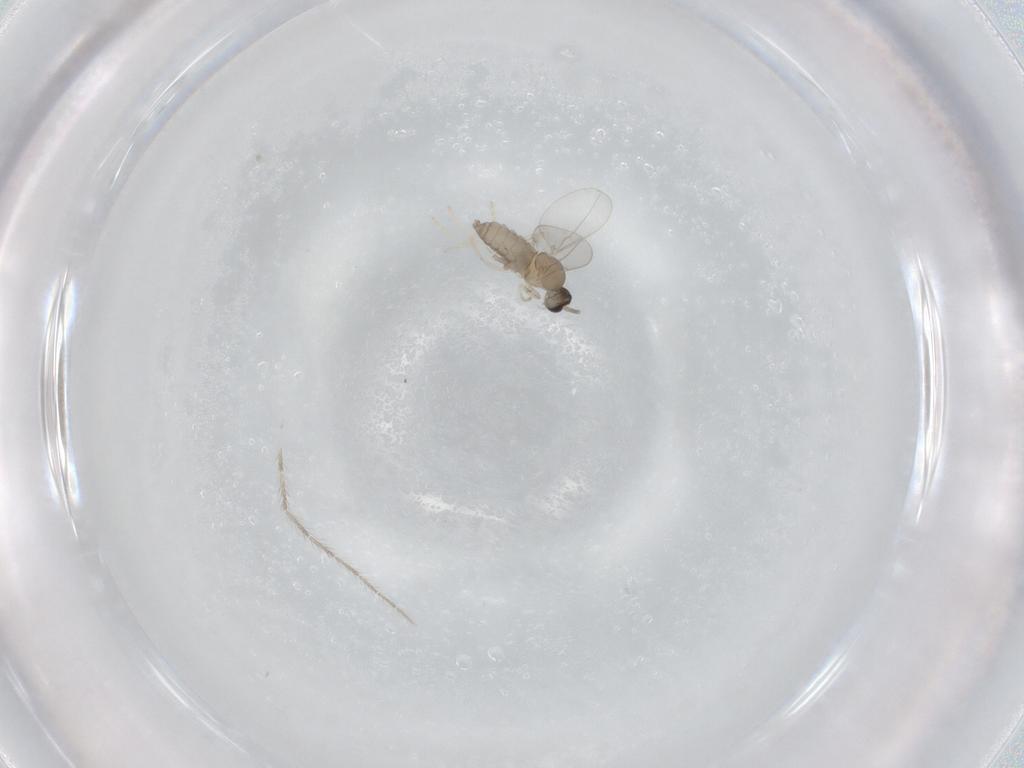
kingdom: Animalia
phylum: Arthropoda
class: Insecta
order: Diptera
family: Cecidomyiidae
